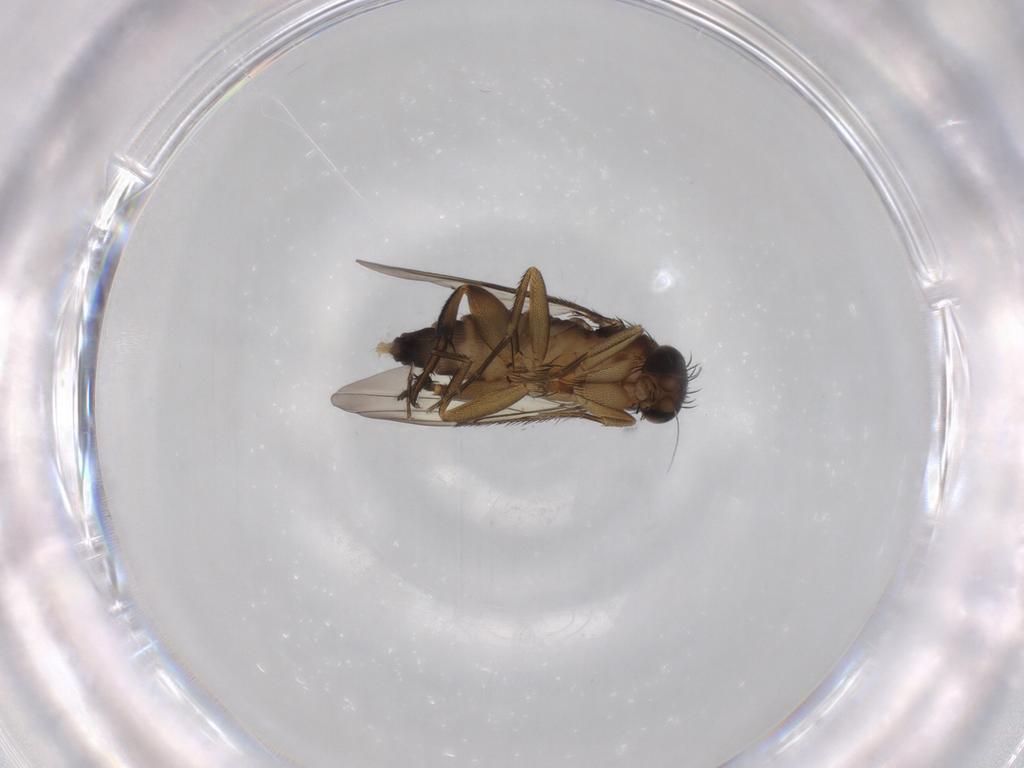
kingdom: Animalia
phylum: Arthropoda
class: Insecta
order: Diptera
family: Phoridae
